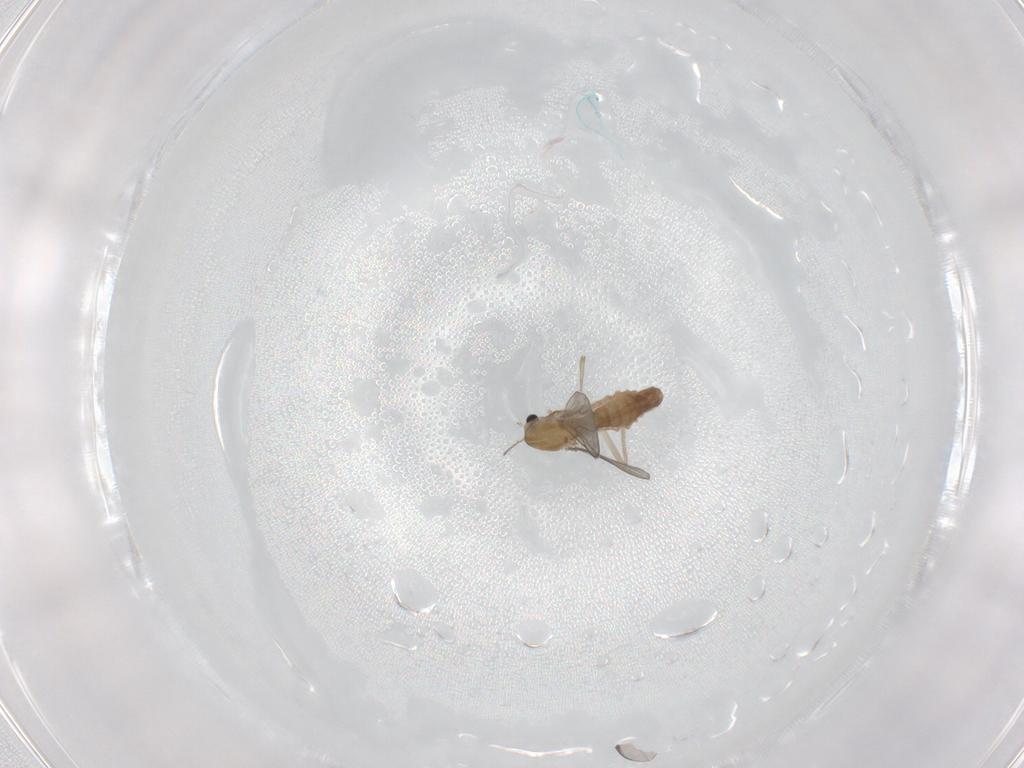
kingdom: Animalia
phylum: Arthropoda
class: Insecta
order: Diptera
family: Chironomidae
